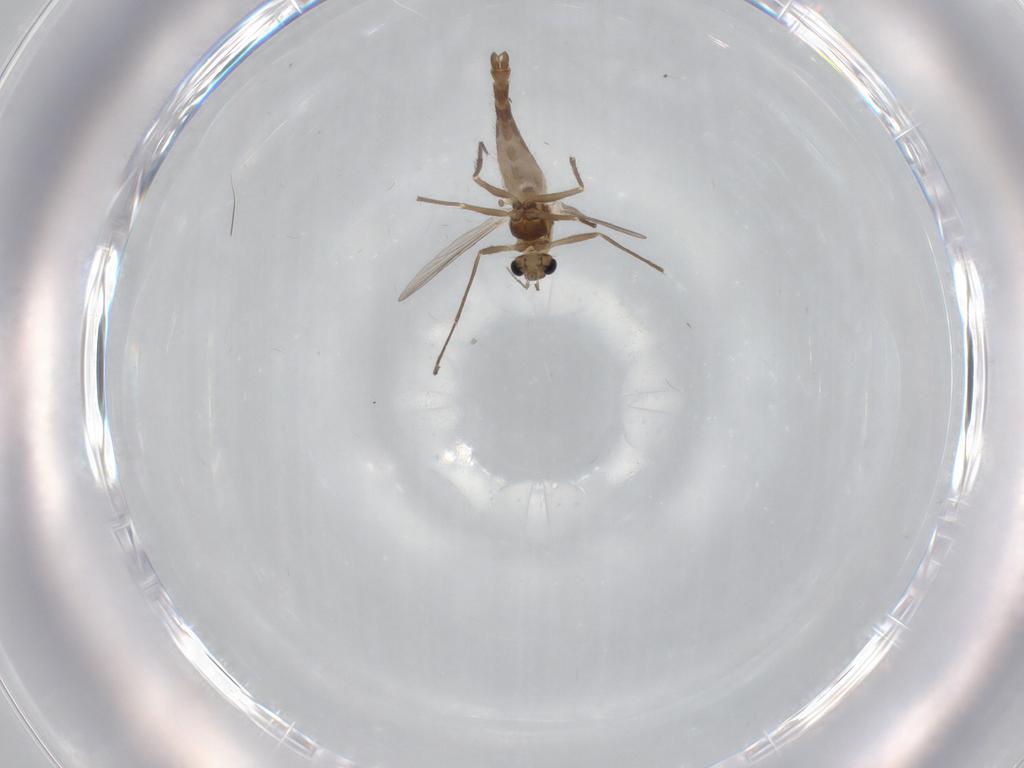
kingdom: Animalia
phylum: Arthropoda
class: Insecta
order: Diptera
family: Chironomidae
